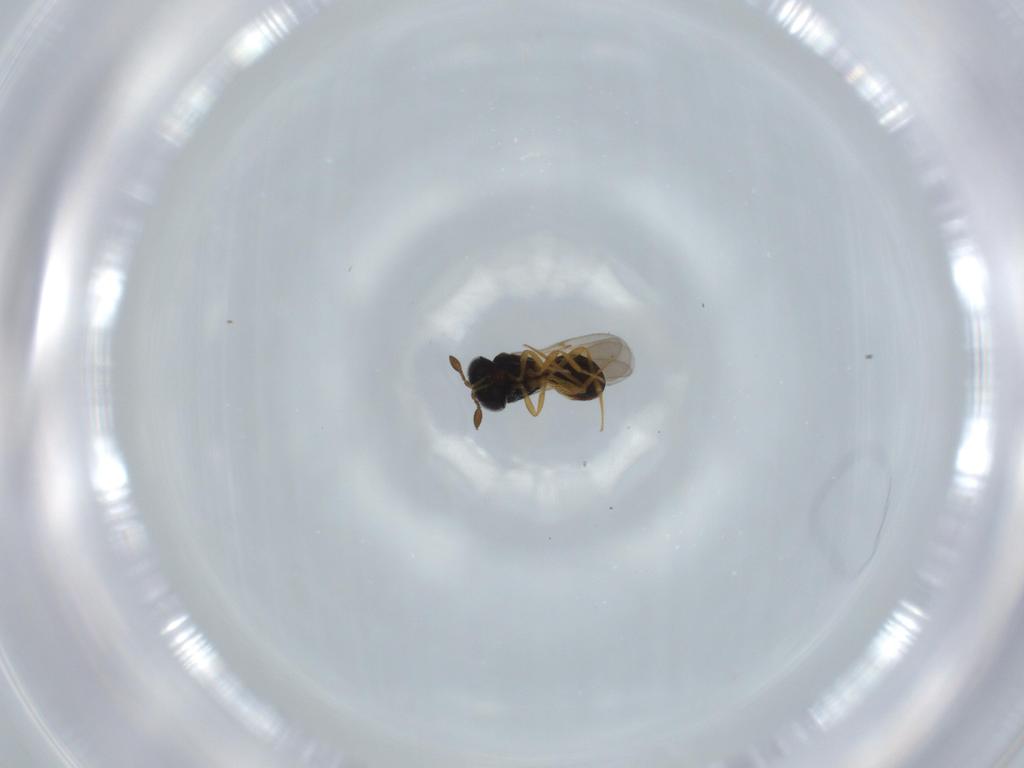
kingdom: Animalia
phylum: Arthropoda
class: Insecta
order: Hymenoptera
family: Scelionidae
